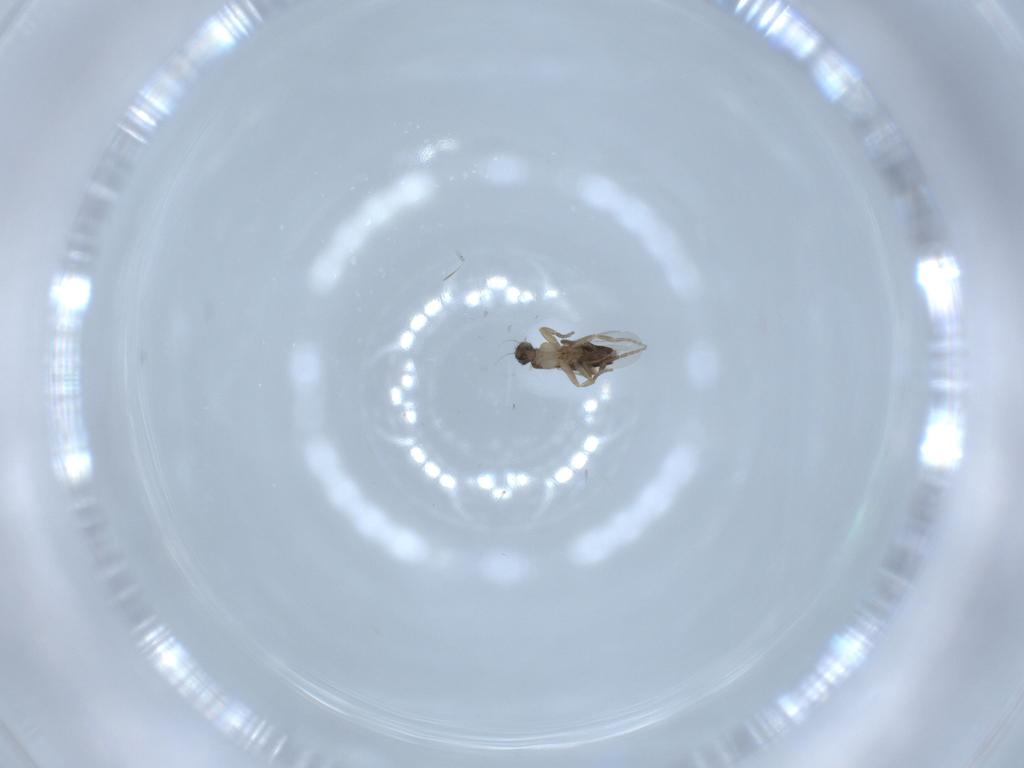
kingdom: Animalia
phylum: Arthropoda
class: Insecta
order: Diptera
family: Phoridae
